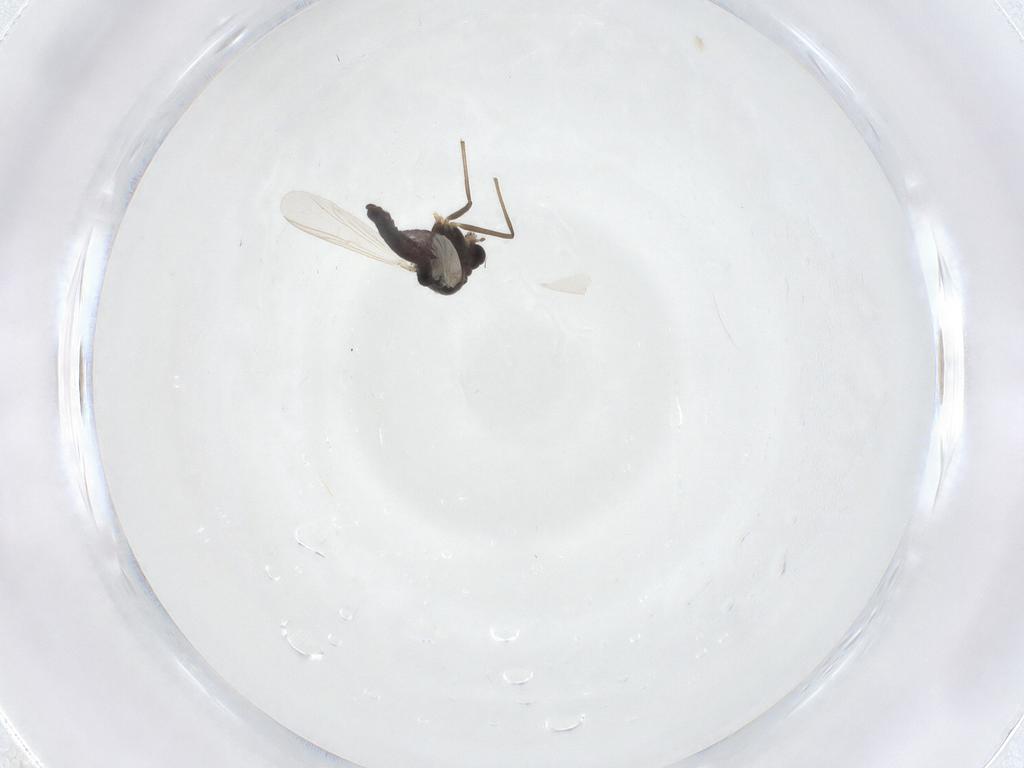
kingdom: Animalia
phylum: Arthropoda
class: Insecta
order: Diptera
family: Chironomidae
